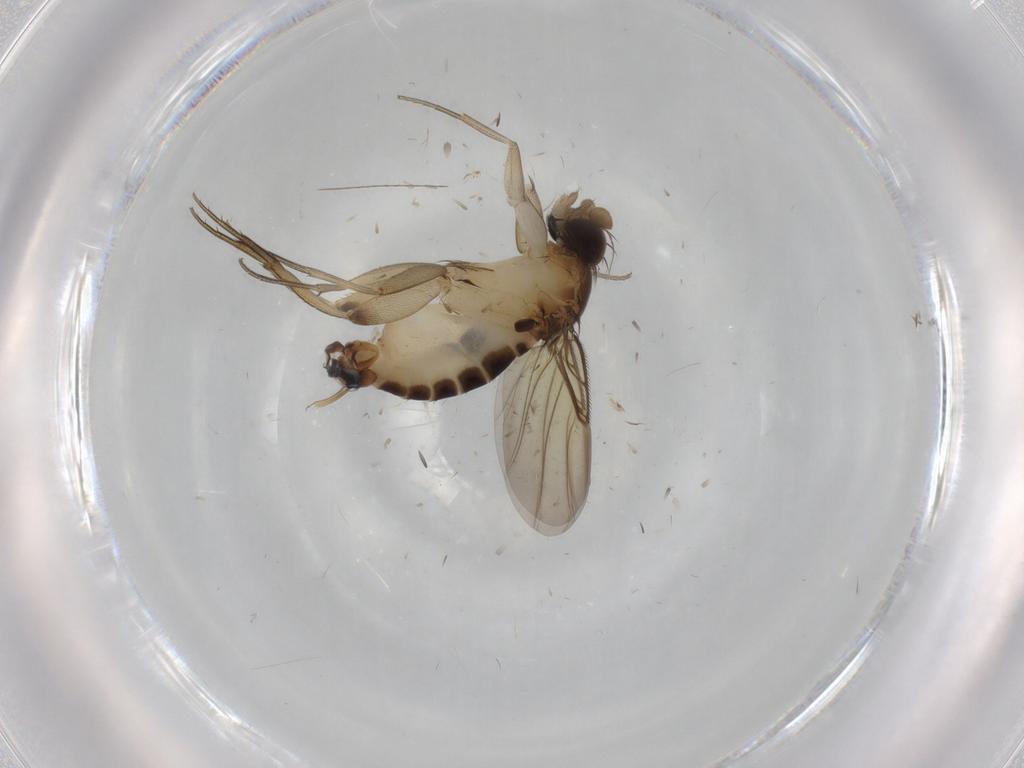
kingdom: Animalia
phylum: Arthropoda
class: Insecta
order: Diptera
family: Phoridae
